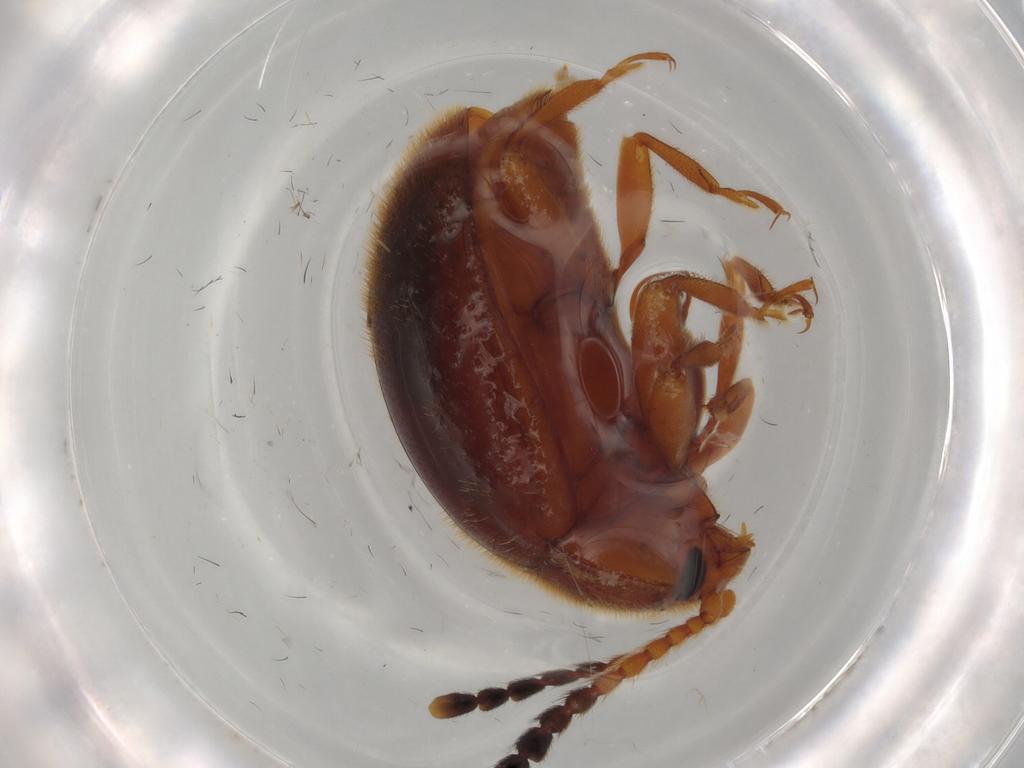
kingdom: Animalia
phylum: Arthropoda
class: Insecta
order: Coleoptera
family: Endomychidae
